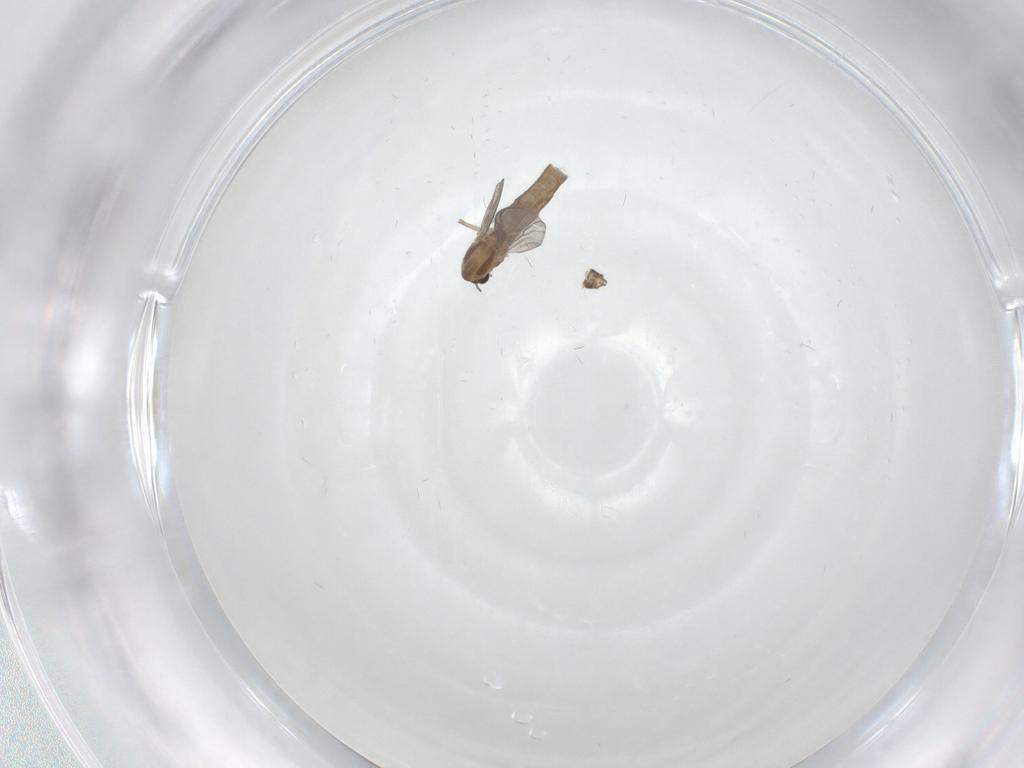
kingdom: Animalia
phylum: Arthropoda
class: Insecta
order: Diptera
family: Chironomidae
